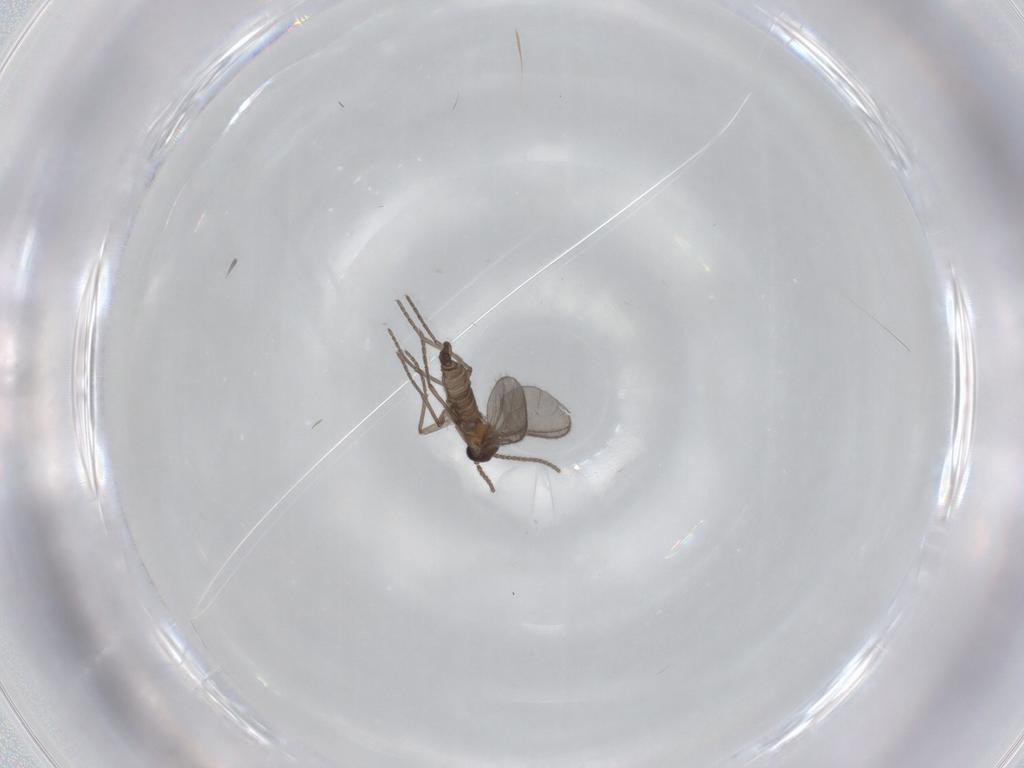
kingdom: Animalia
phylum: Arthropoda
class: Insecta
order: Diptera
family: Sciaridae
